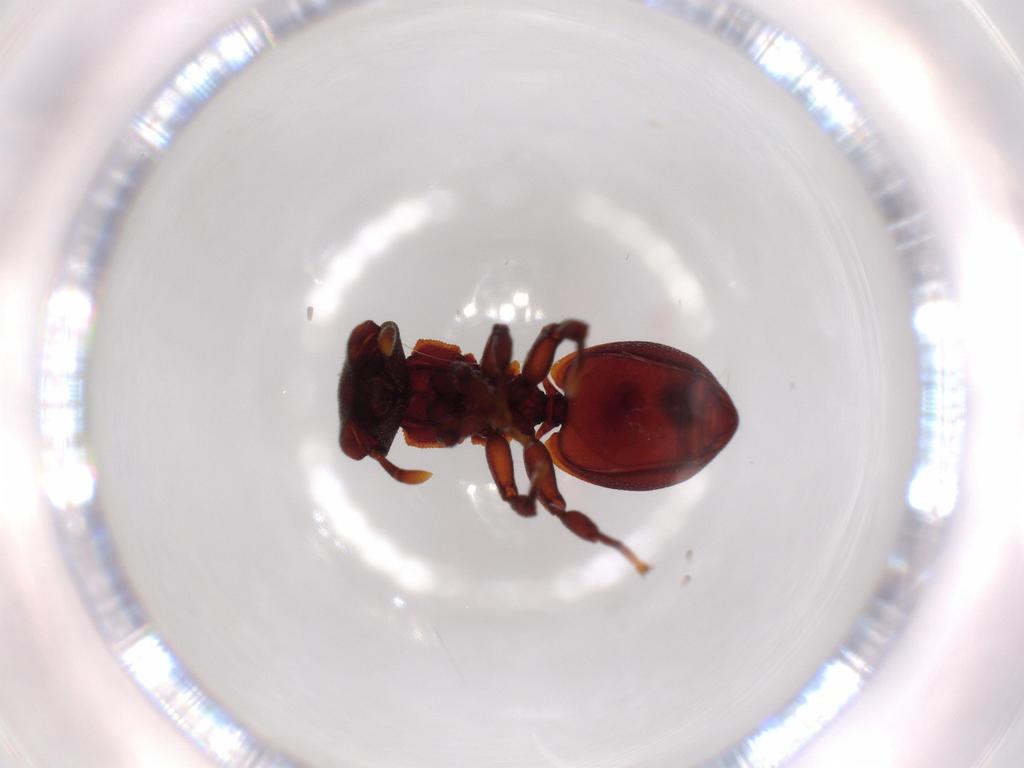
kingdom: Animalia
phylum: Arthropoda
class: Insecta
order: Hymenoptera
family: Formicidae
